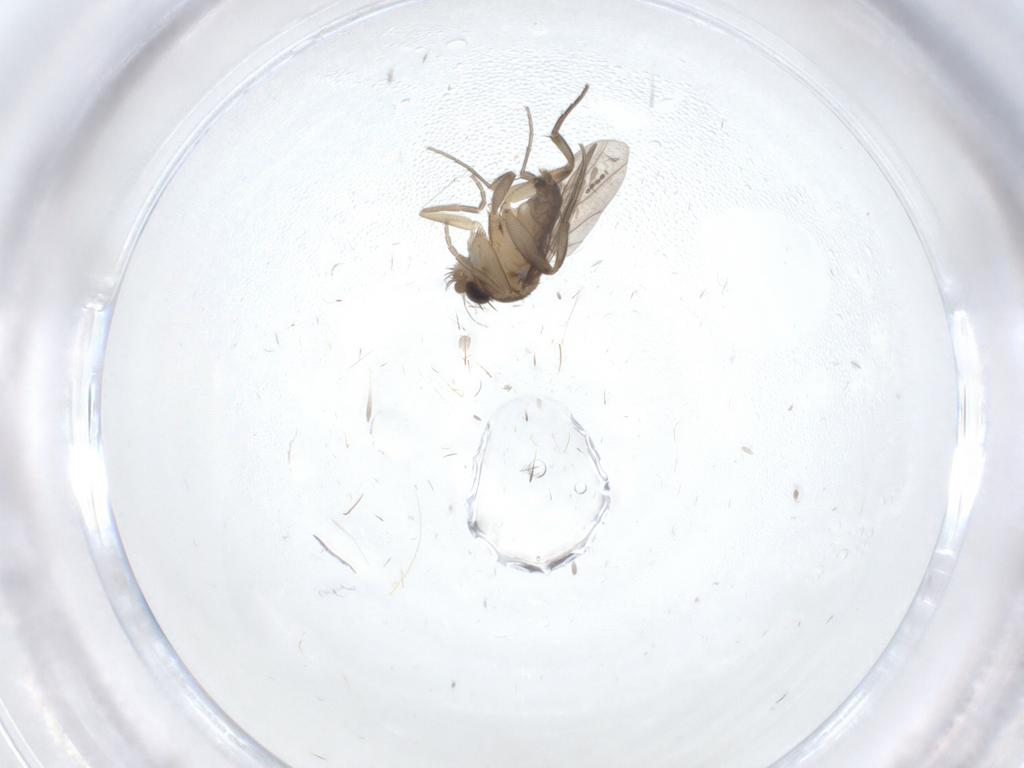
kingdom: Animalia
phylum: Arthropoda
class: Insecta
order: Diptera
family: Phoridae
